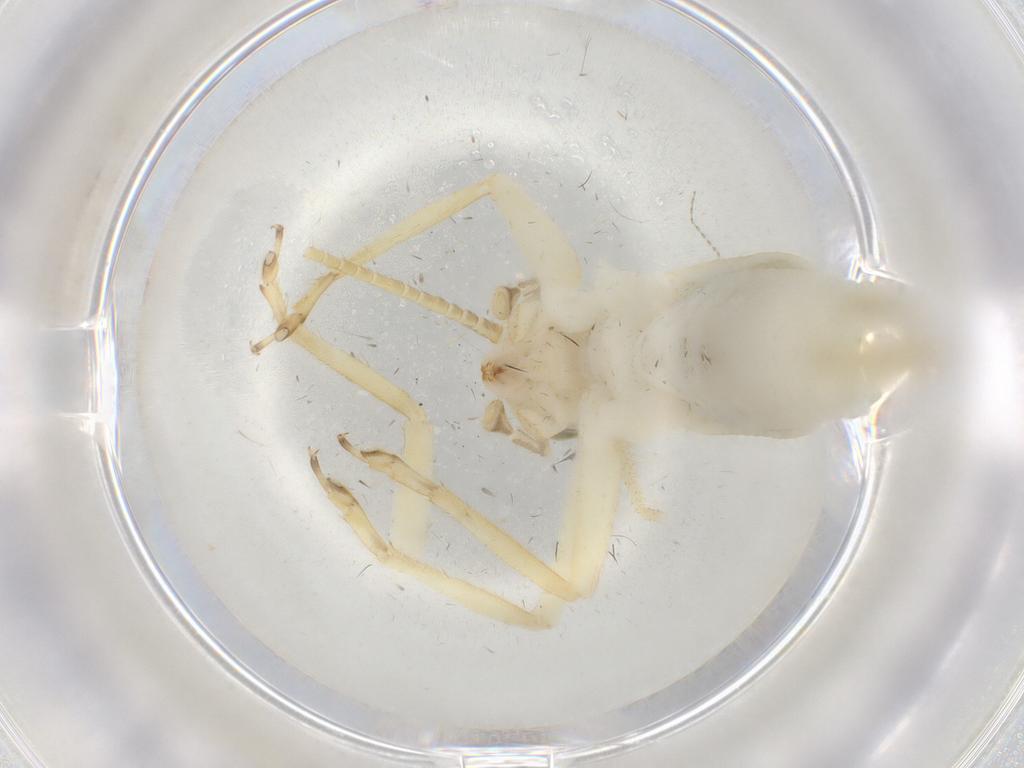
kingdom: Animalia
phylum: Arthropoda
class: Insecta
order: Orthoptera
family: Trigonidiidae
